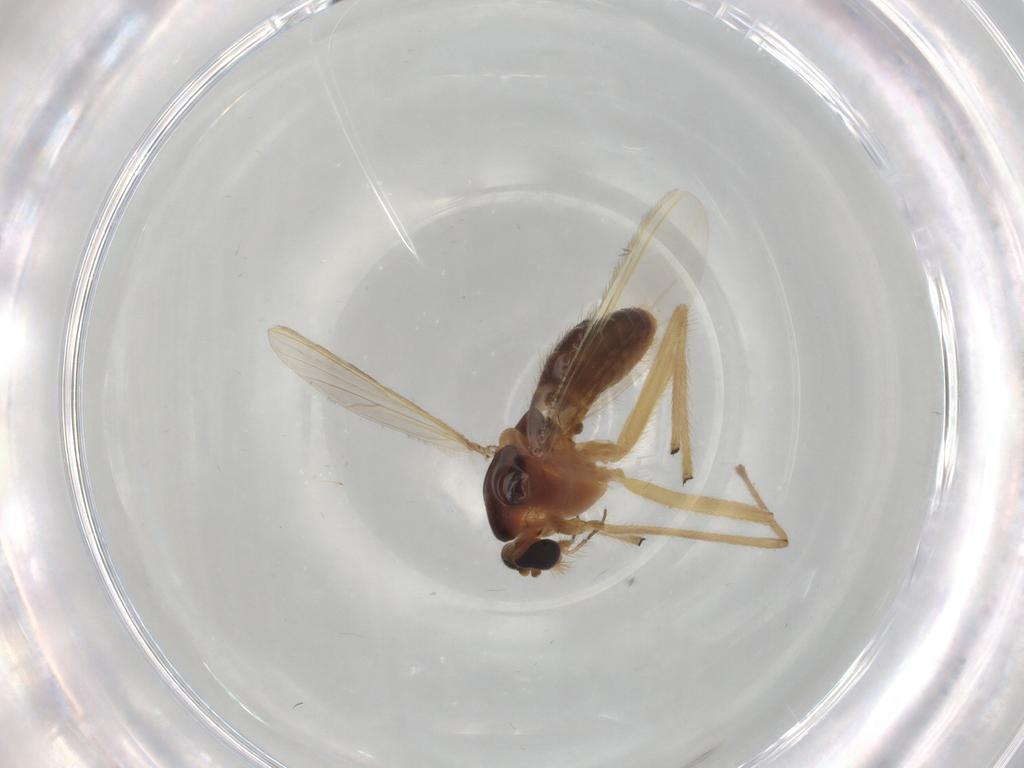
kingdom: Animalia
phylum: Arthropoda
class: Insecta
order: Diptera
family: Chironomidae
